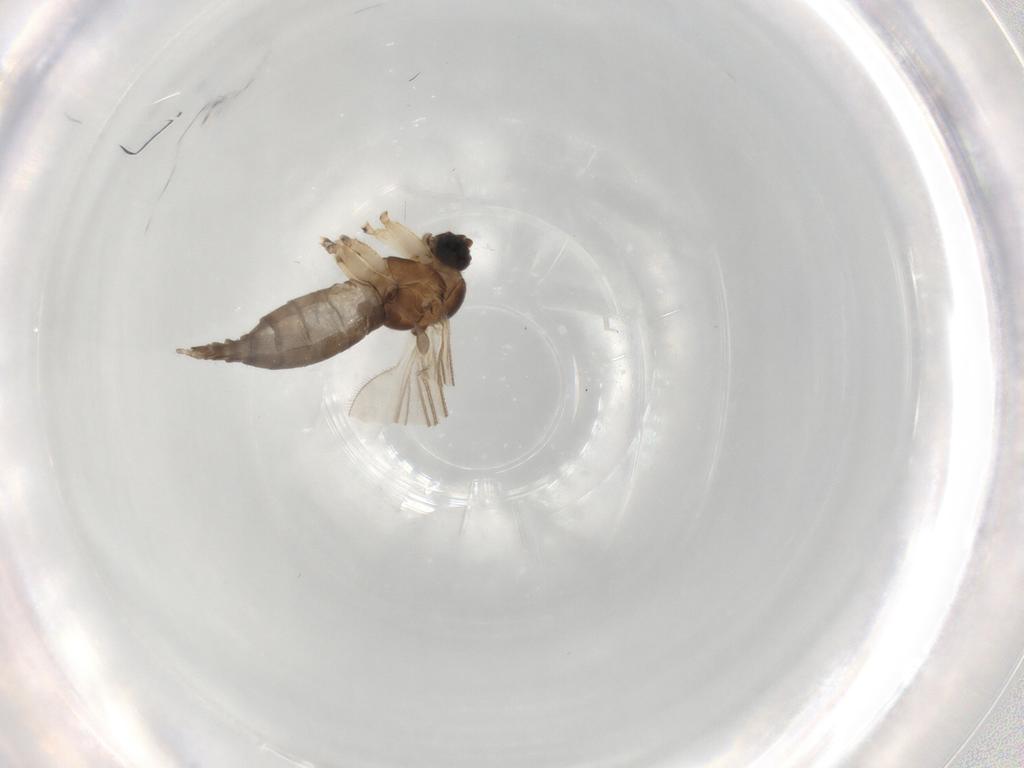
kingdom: Animalia
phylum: Arthropoda
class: Insecta
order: Diptera
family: Sciaridae
